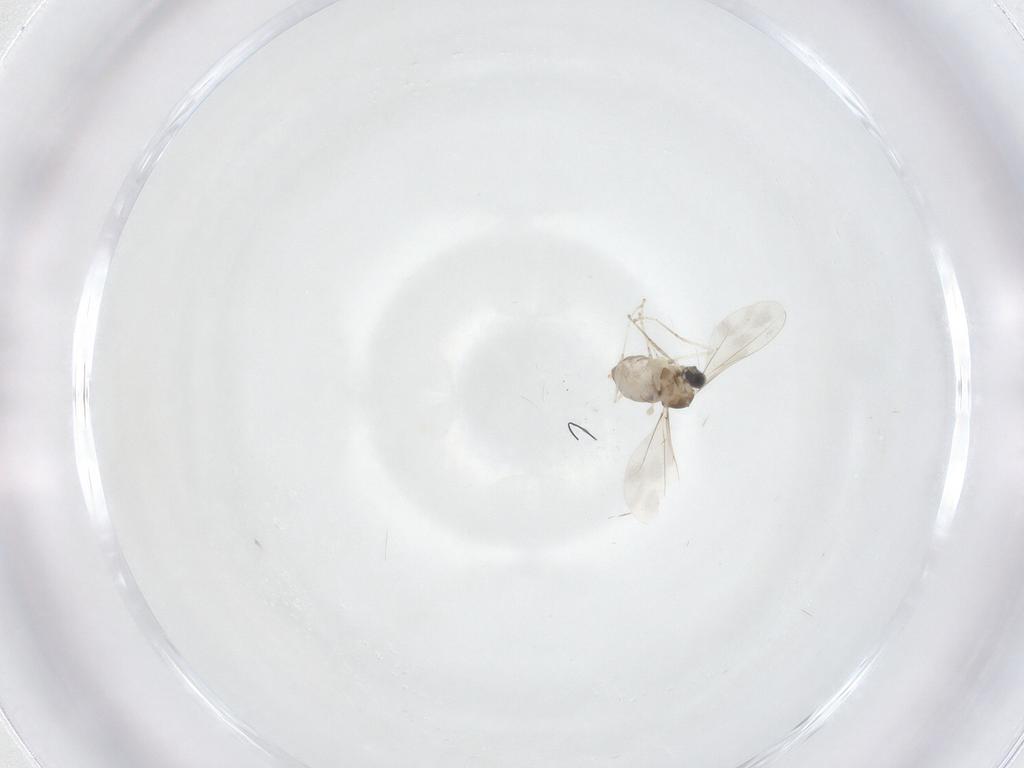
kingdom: Animalia
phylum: Arthropoda
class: Insecta
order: Diptera
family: Cecidomyiidae
